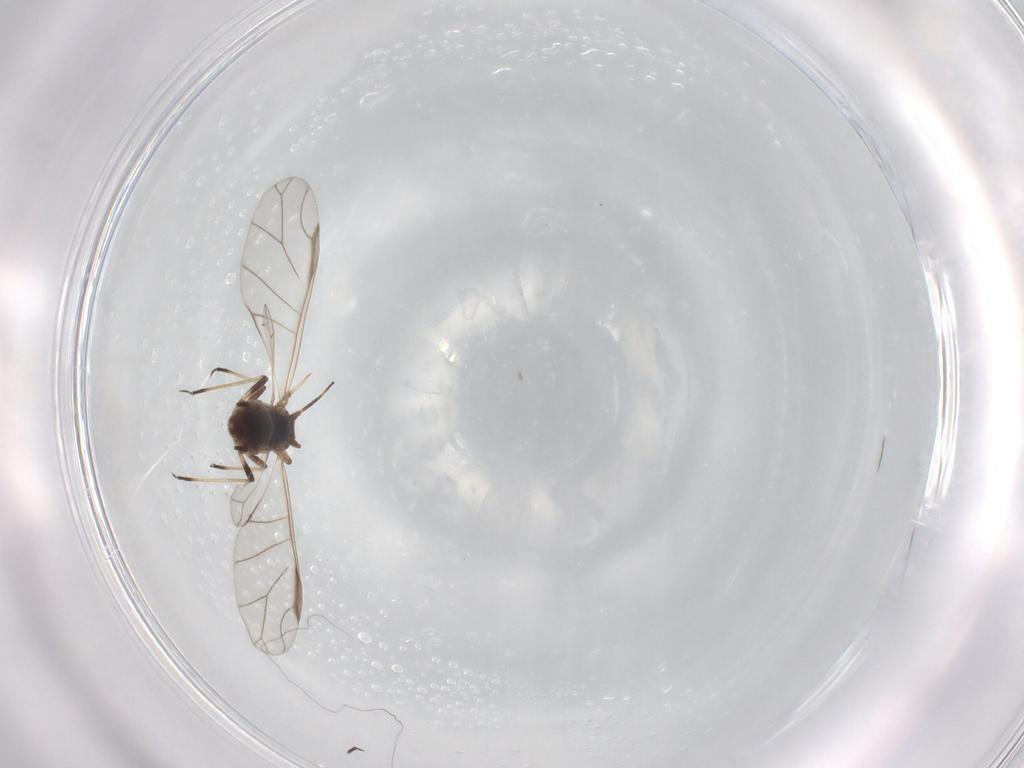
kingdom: Animalia
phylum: Arthropoda
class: Insecta
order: Hemiptera
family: Aphididae
